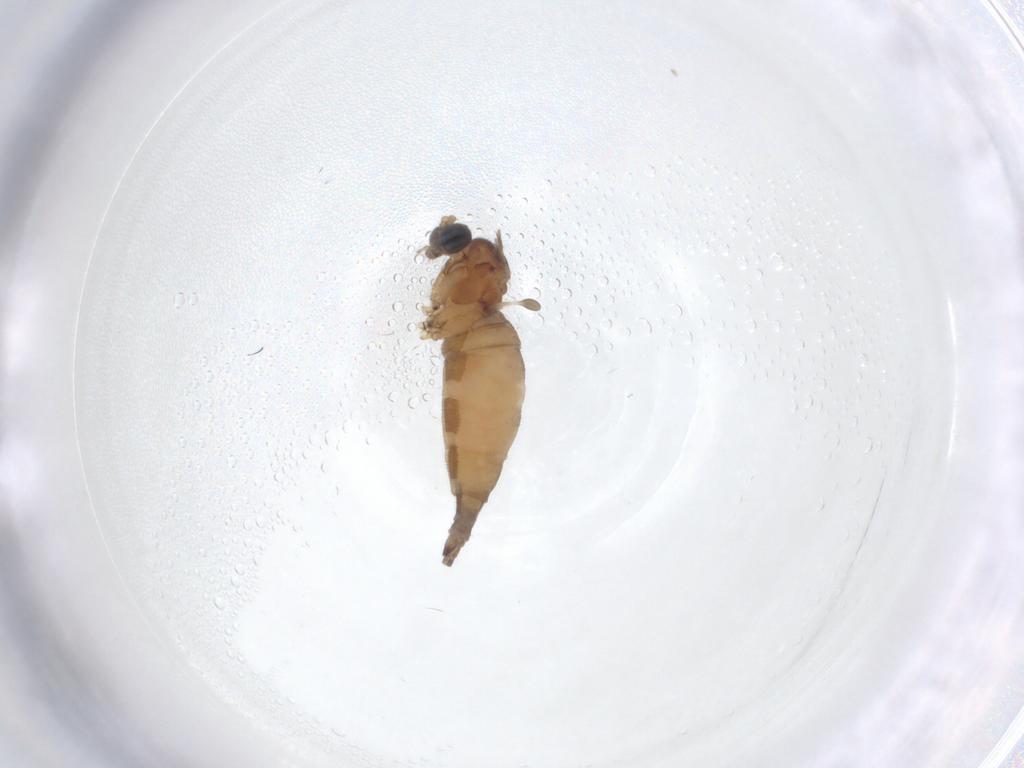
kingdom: Animalia
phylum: Arthropoda
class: Insecta
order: Diptera
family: Sciaridae
